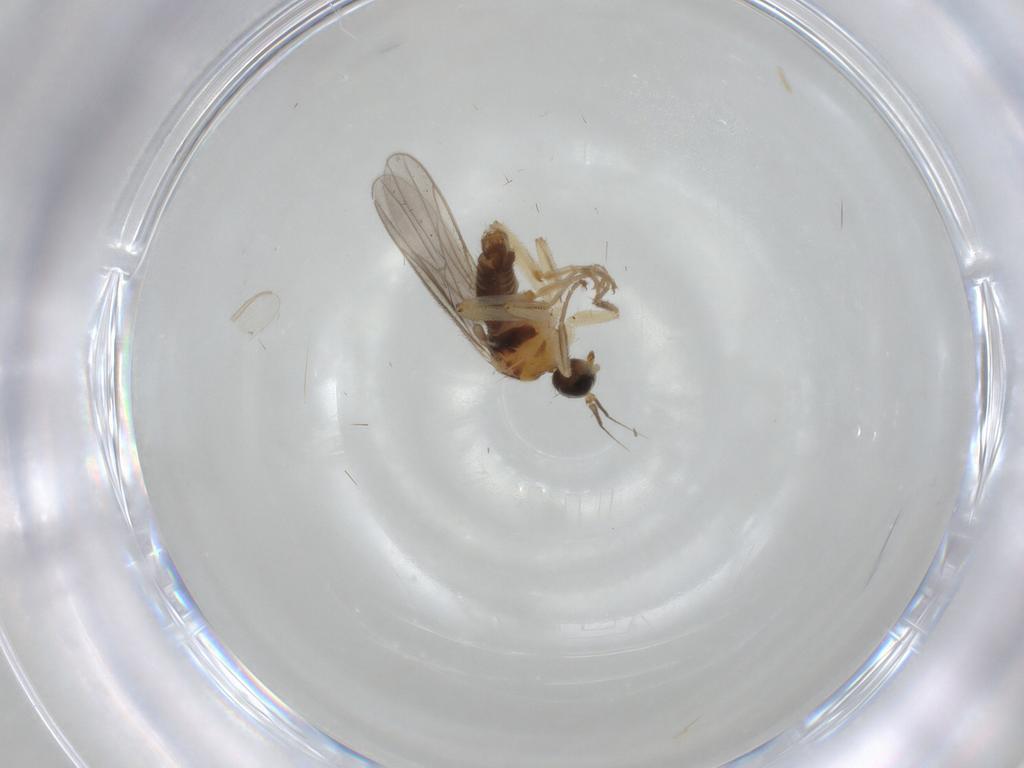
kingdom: Animalia
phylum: Arthropoda
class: Insecta
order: Diptera
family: Hybotidae
